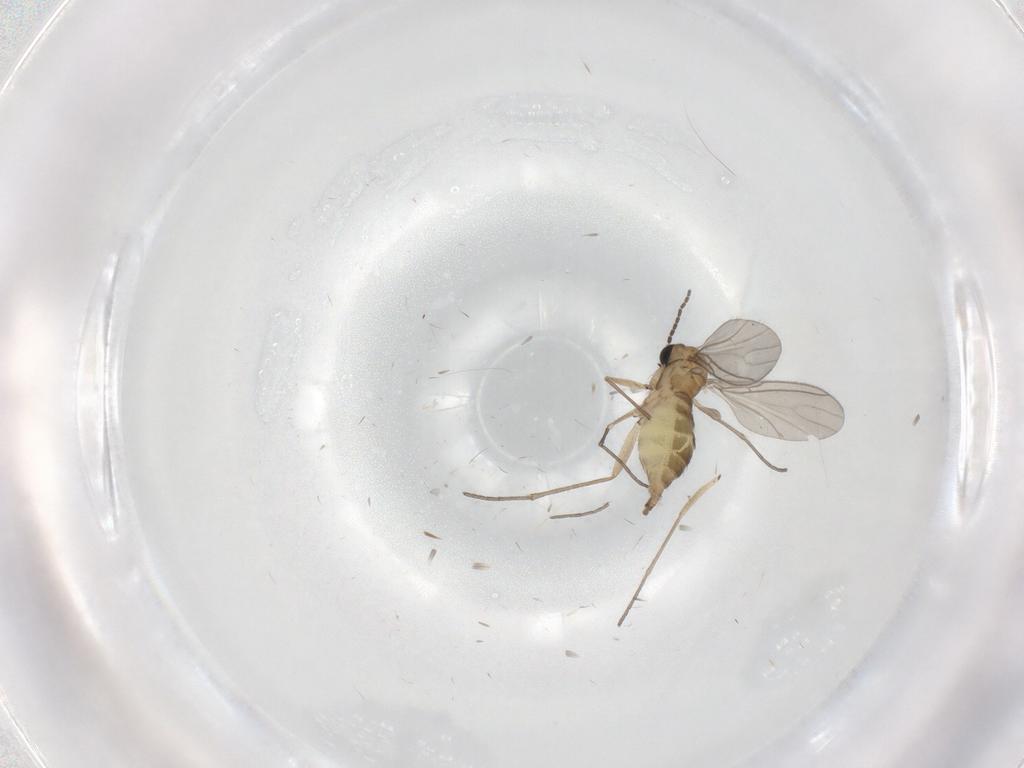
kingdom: Animalia
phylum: Arthropoda
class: Insecta
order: Diptera
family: Sciaridae
